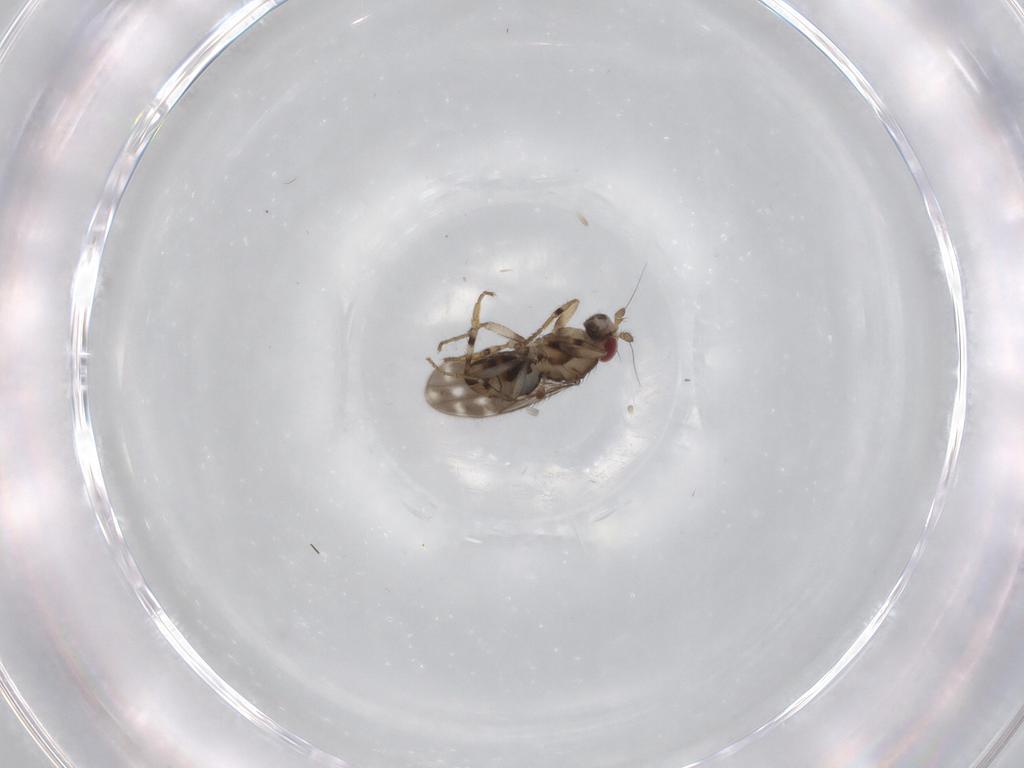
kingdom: Animalia
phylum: Arthropoda
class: Insecta
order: Diptera
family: Sphaeroceridae
